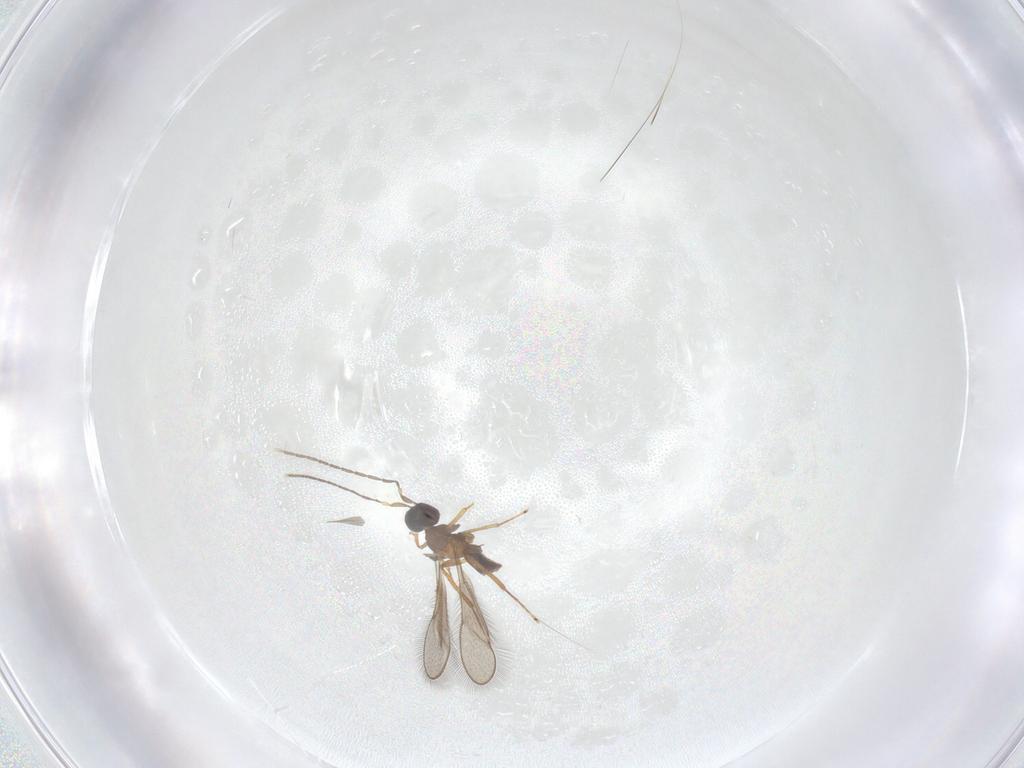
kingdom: Animalia
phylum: Arthropoda
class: Insecta
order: Hymenoptera
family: Mymaridae
